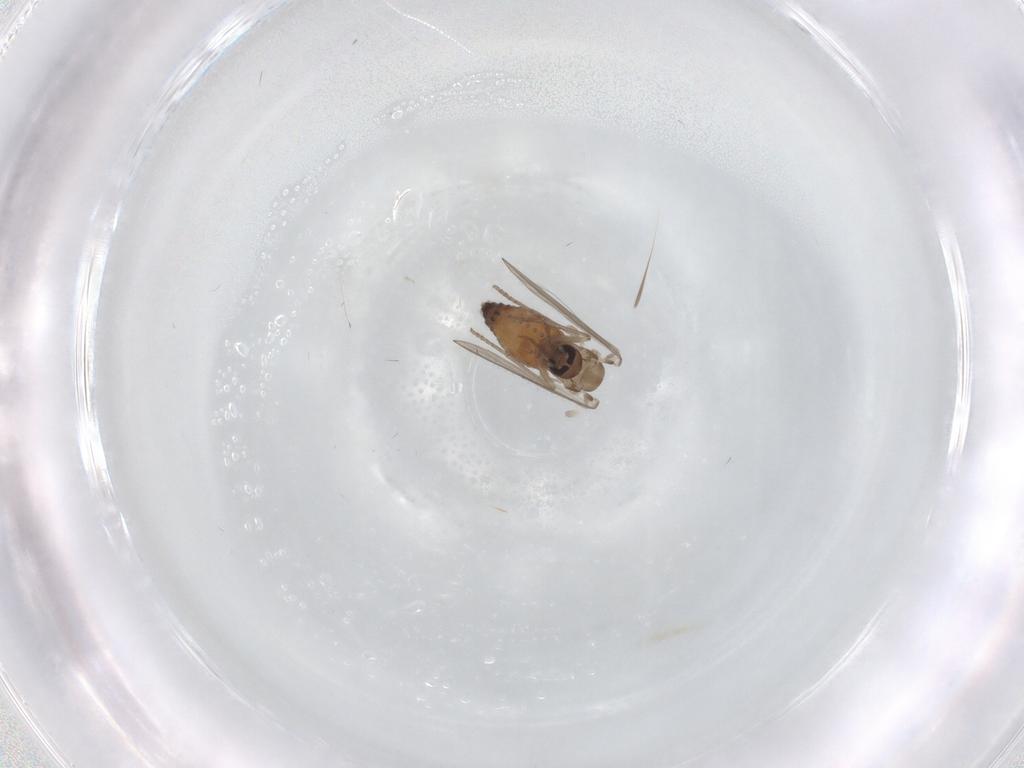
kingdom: Animalia
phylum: Arthropoda
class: Insecta
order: Diptera
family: Psychodidae
